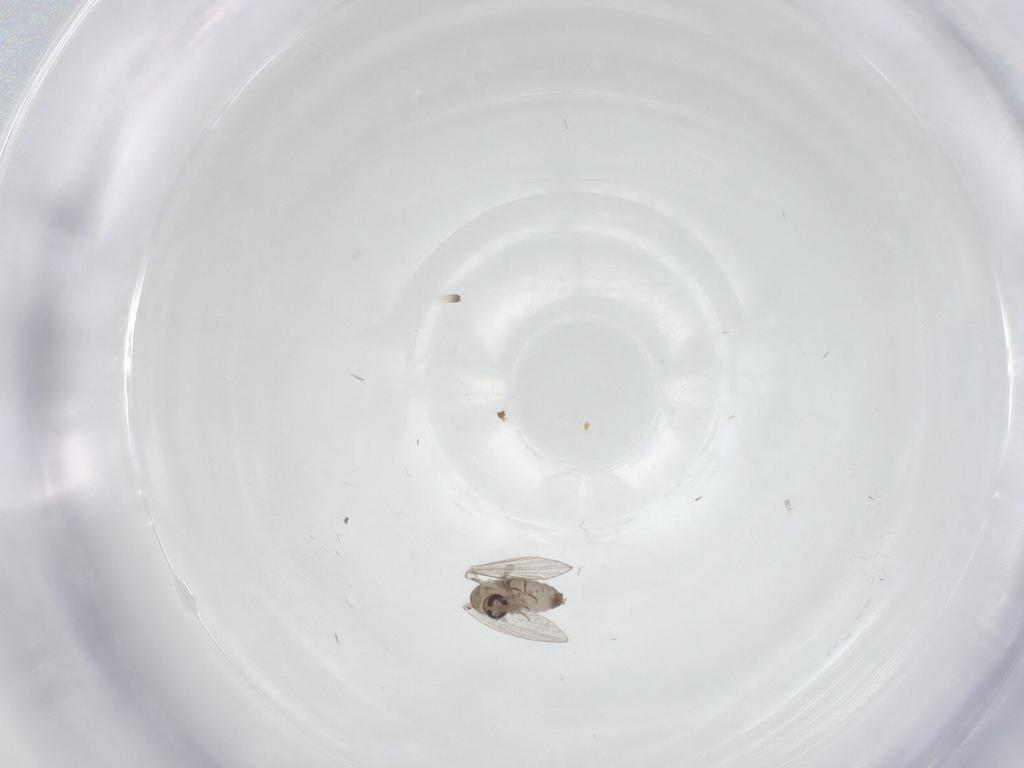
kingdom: Animalia
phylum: Arthropoda
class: Insecta
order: Diptera
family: Psychodidae
